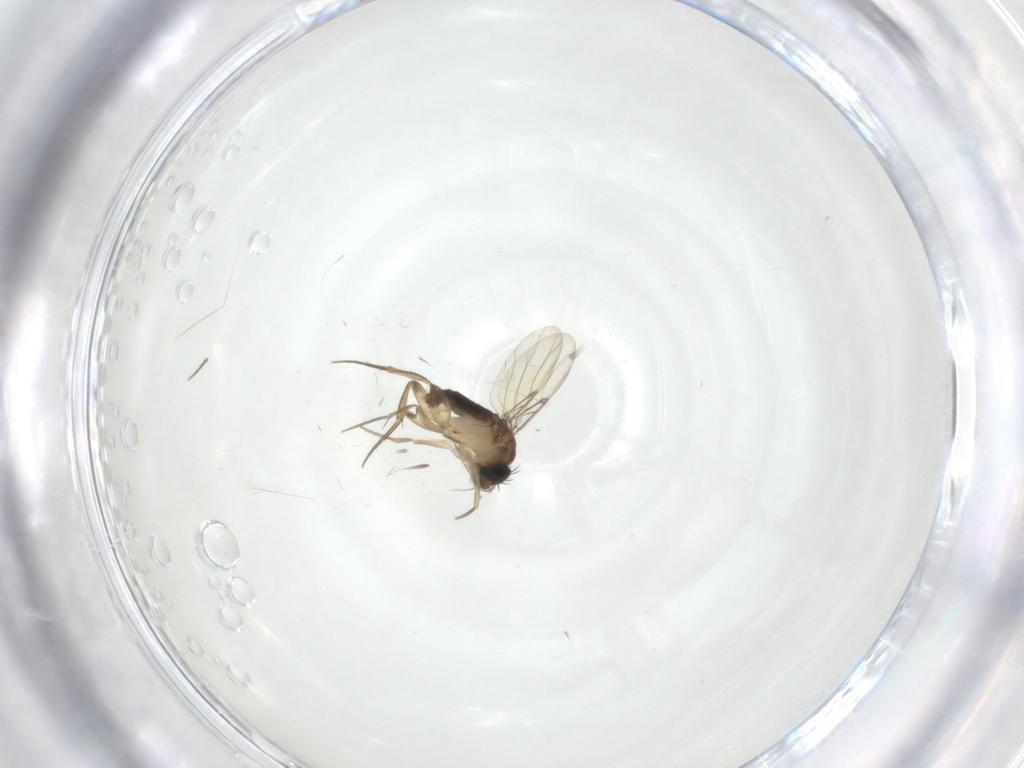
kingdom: Animalia
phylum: Arthropoda
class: Insecta
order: Diptera
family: Phoridae
